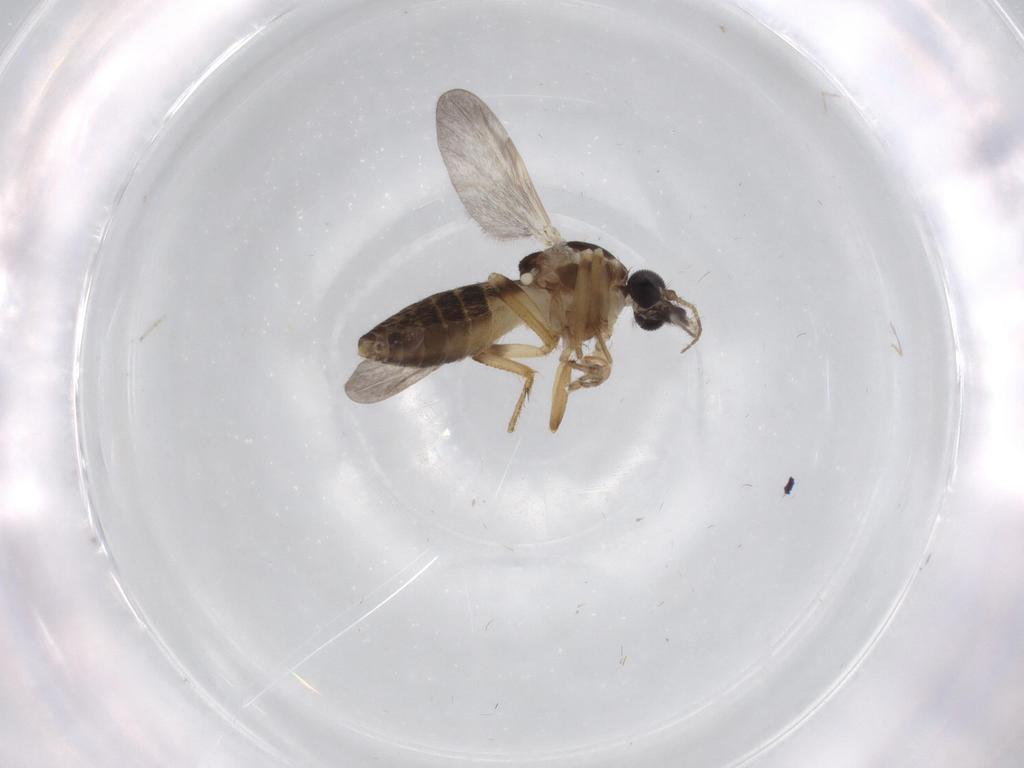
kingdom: Animalia
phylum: Arthropoda
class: Insecta
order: Diptera
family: Ceratopogonidae
